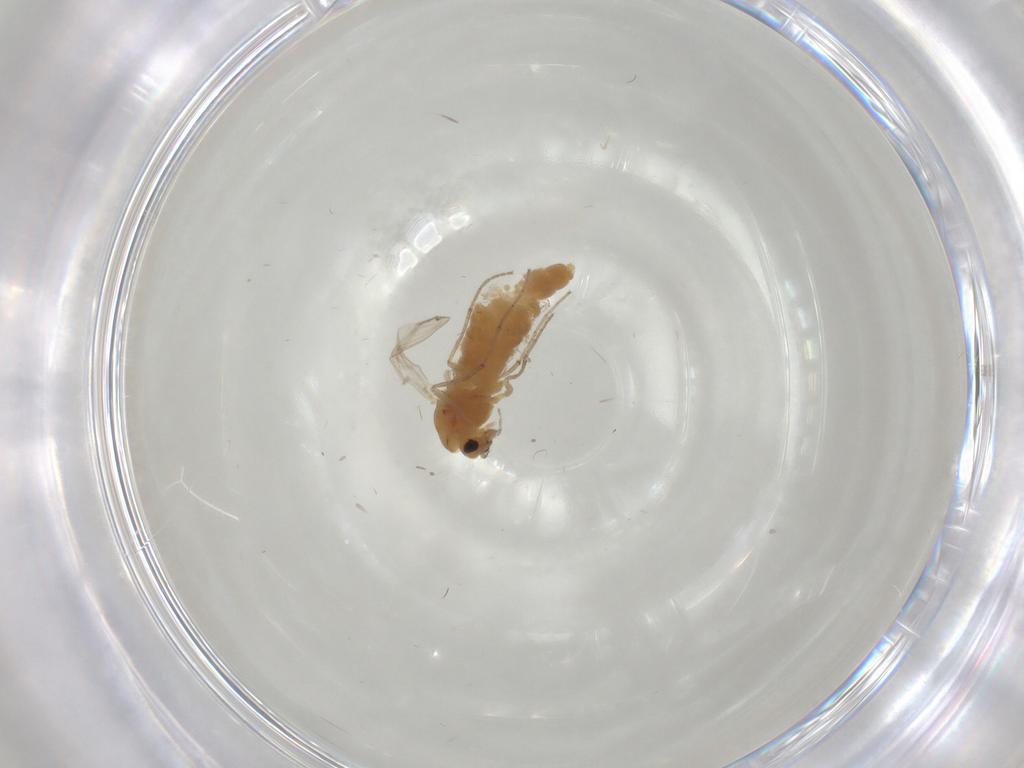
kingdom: Animalia
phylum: Arthropoda
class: Insecta
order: Diptera
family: Chironomidae
